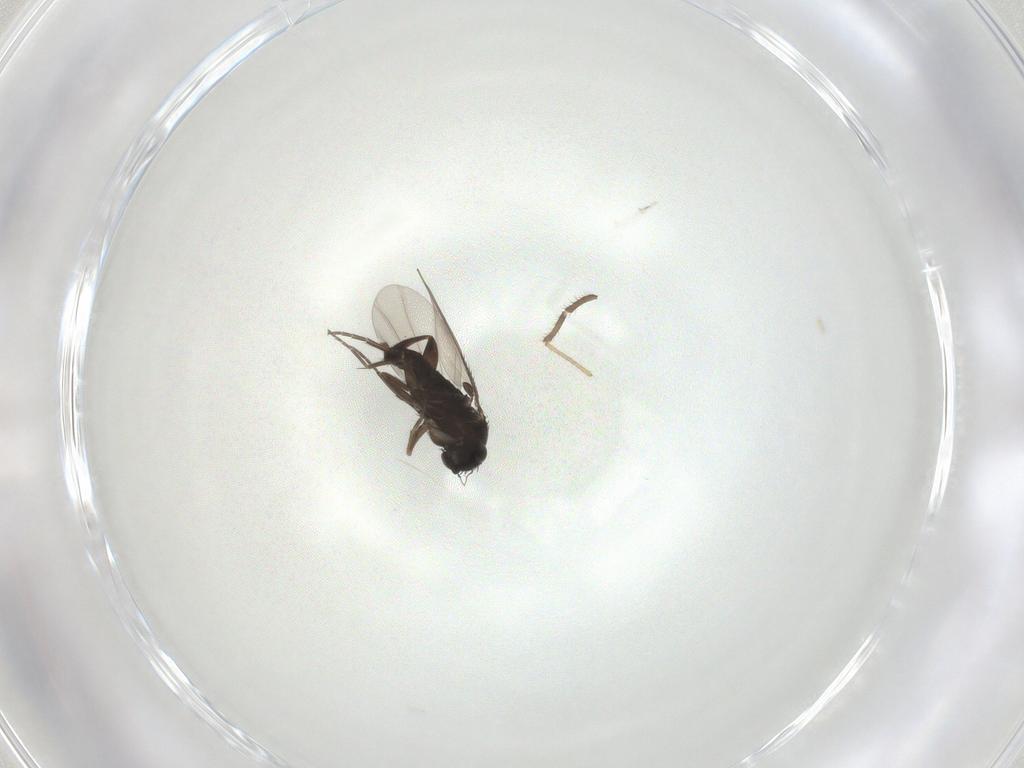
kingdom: Animalia
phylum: Arthropoda
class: Insecta
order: Diptera
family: Phoridae
